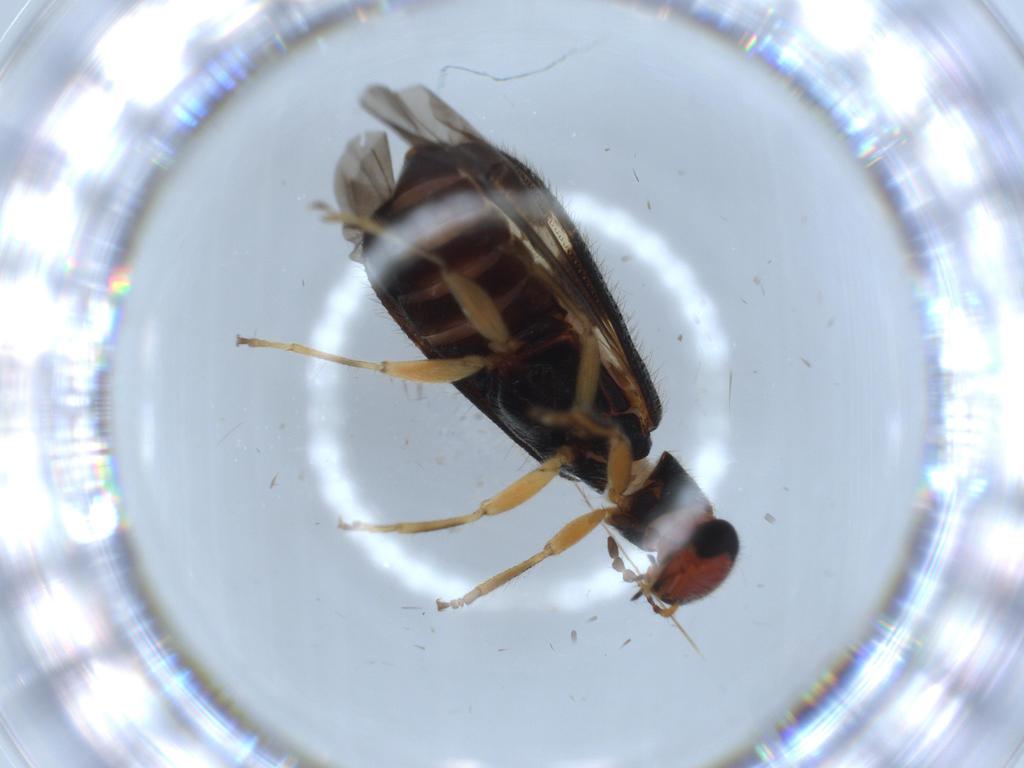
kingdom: Animalia
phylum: Arthropoda
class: Insecta
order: Coleoptera
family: Cleridae
